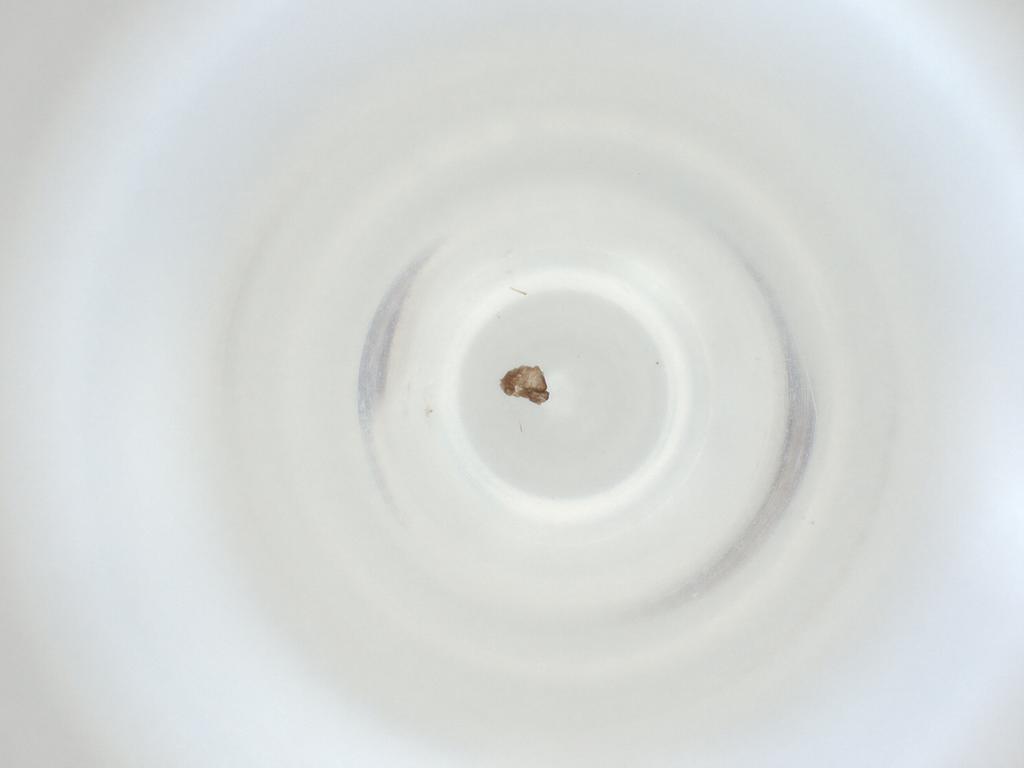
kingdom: Animalia
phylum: Arthropoda
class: Insecta
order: Diptera
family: Cecidomyiidae
